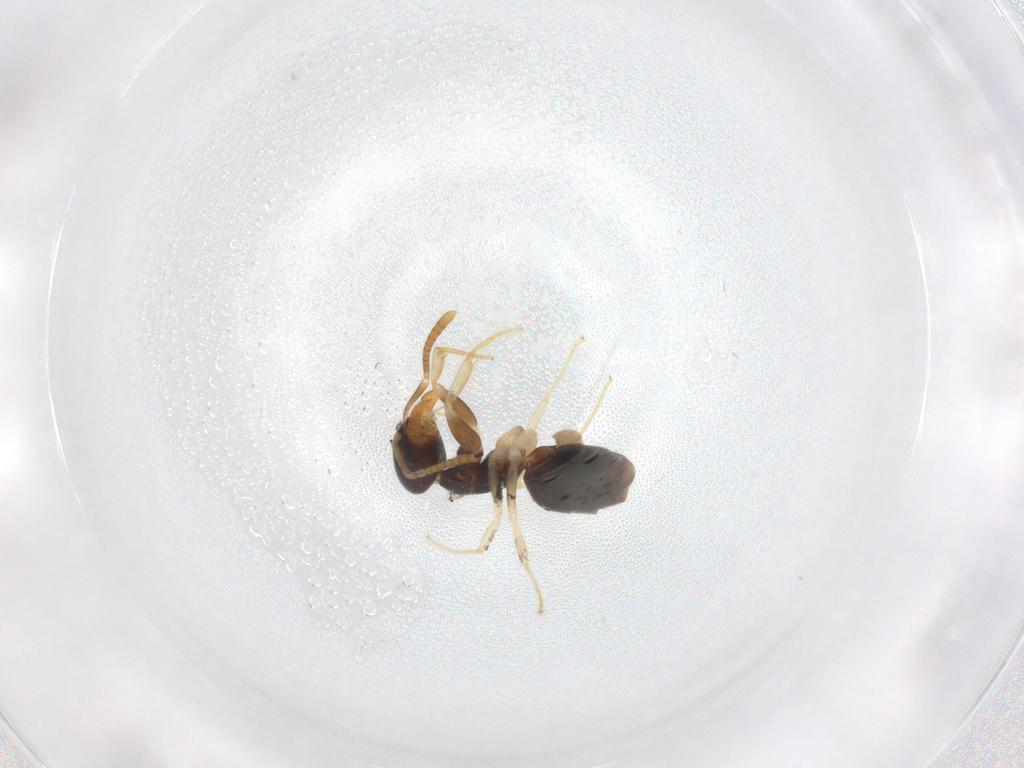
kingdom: Animalia
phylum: Arthropoda
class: Insecta
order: Hymenoptera
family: Formicidae
